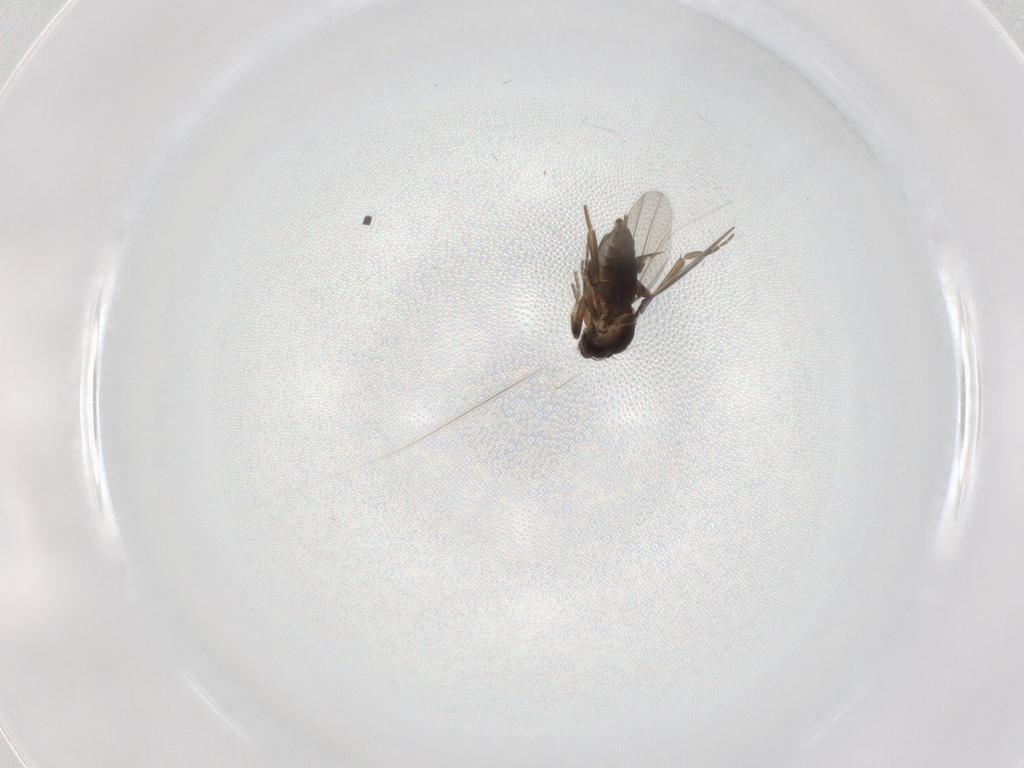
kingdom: Animalia
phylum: Arthropoda
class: Insecta
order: Diptera
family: Phoridae
